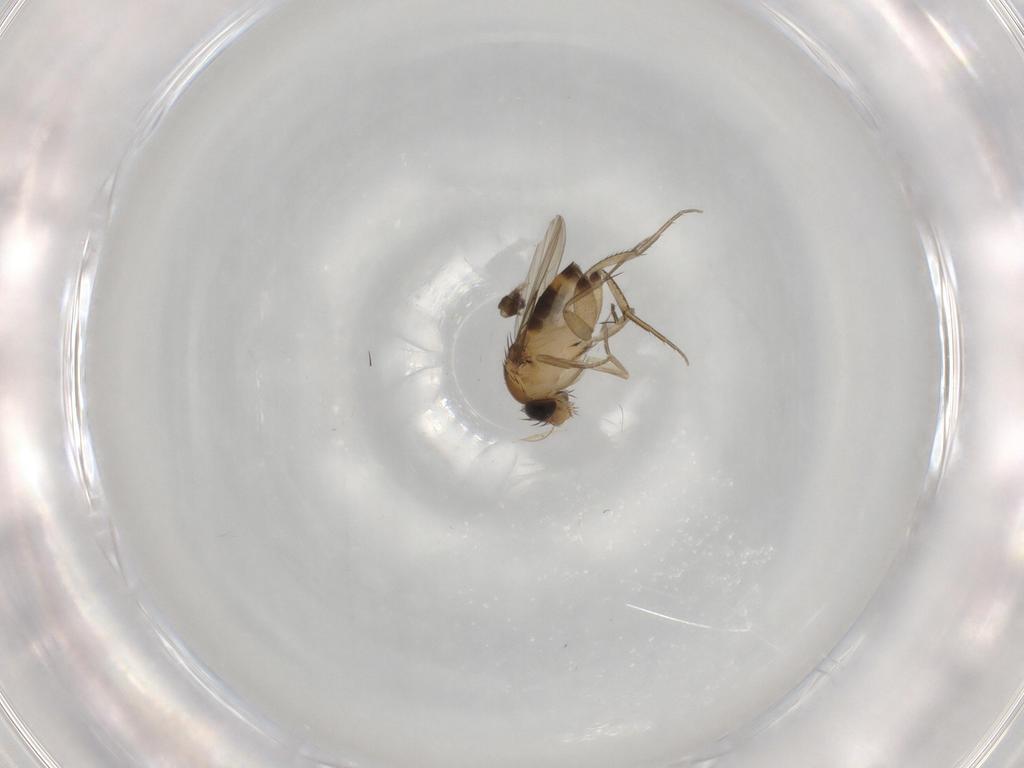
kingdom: Animalia
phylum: Arthropoda
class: Insecta
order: Diptera
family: Phoridae
